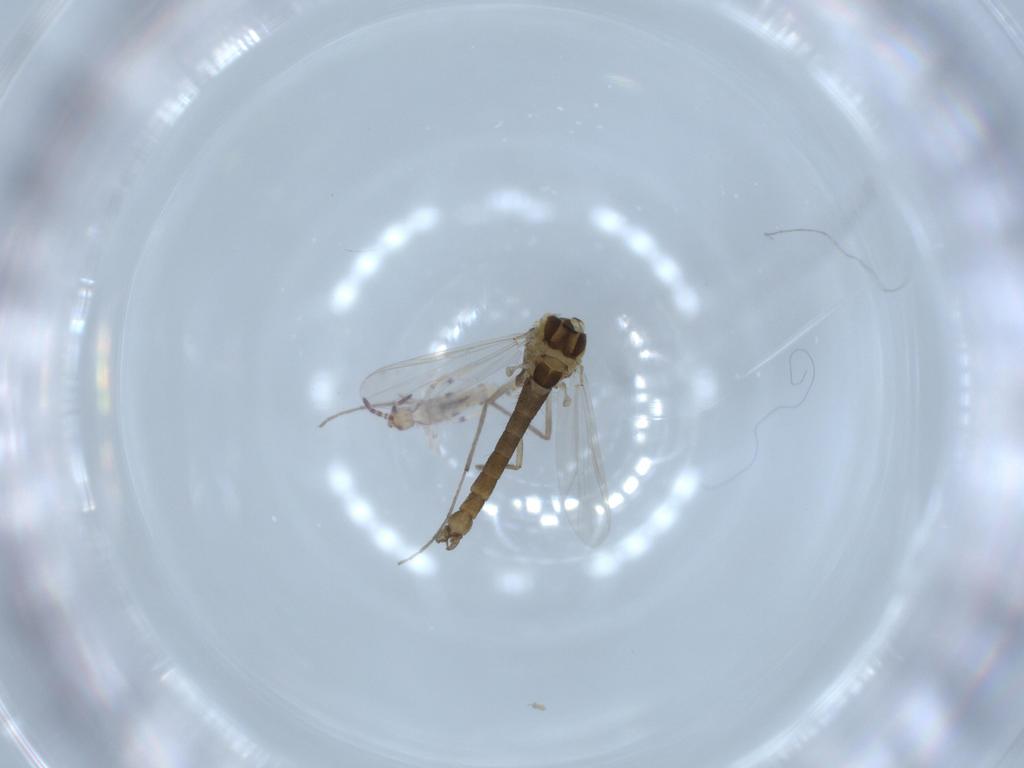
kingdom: Animalia
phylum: Arthropoda
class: Insecta
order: Diptera
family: Chironomidae
